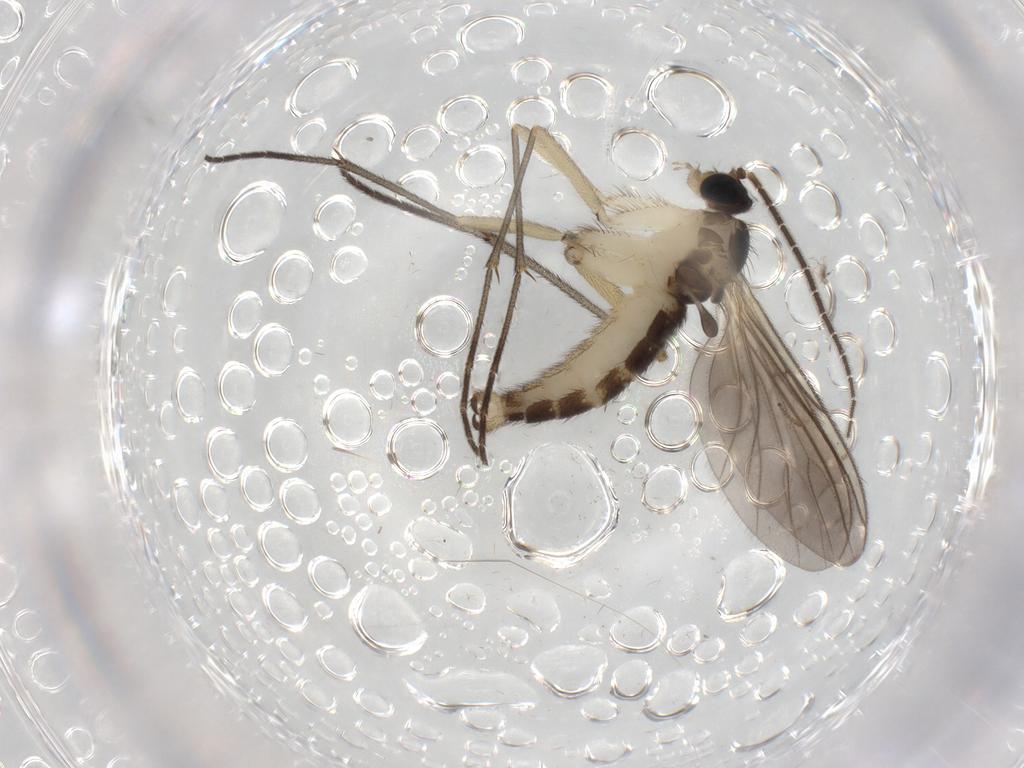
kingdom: Animalia
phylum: Arthropoda
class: Insecta
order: Diptera
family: Sciaridae
